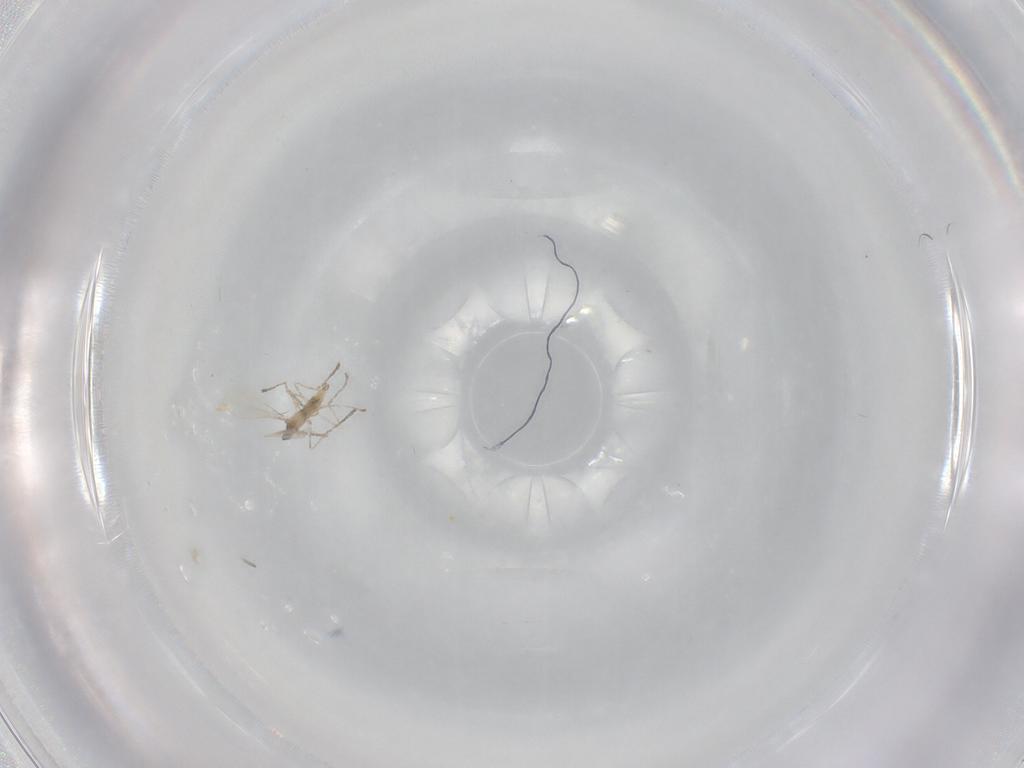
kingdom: Animalia
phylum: Arthropoda
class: Insecta
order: Diptera
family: Cecidomyiidae
